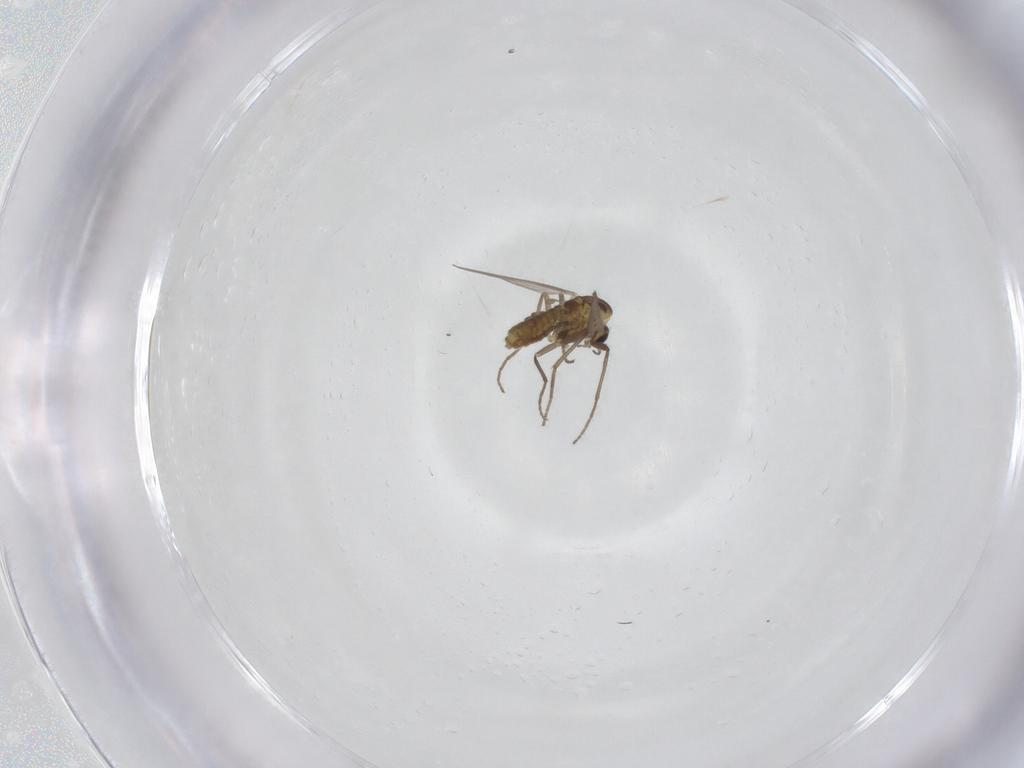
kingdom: Animalia
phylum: Arthropoda
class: Insecta
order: Diptera
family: Chironomidae
